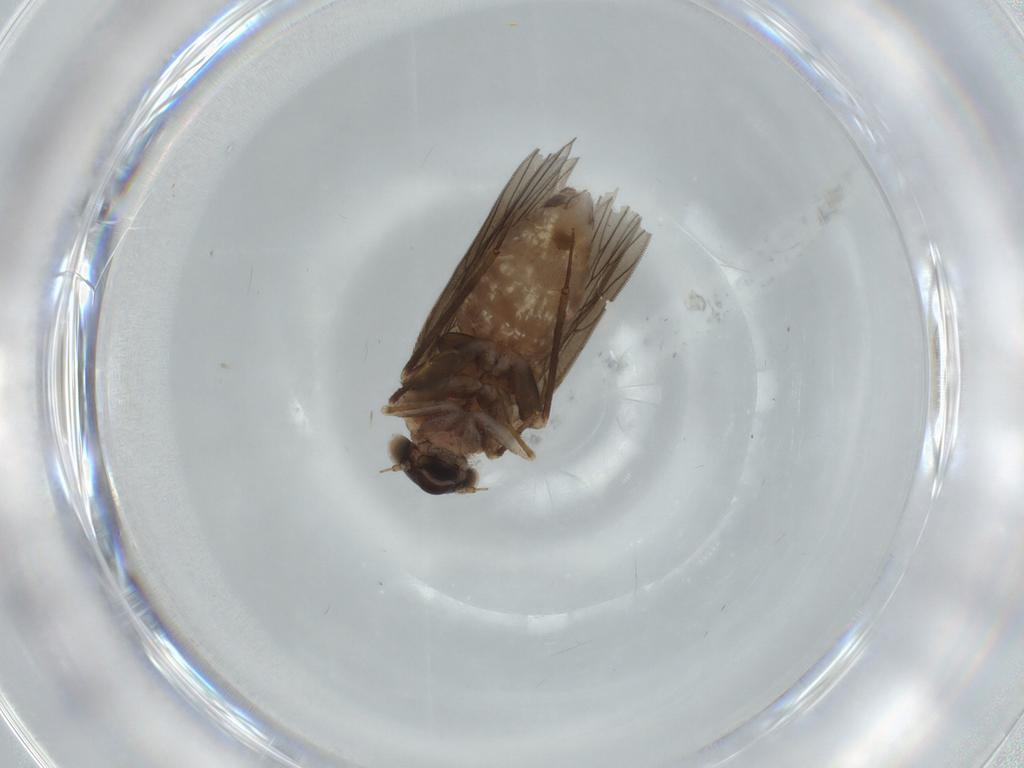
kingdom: Animalia
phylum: Arthropoda
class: Insecta
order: Psocodea
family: Lepidopsocidae
